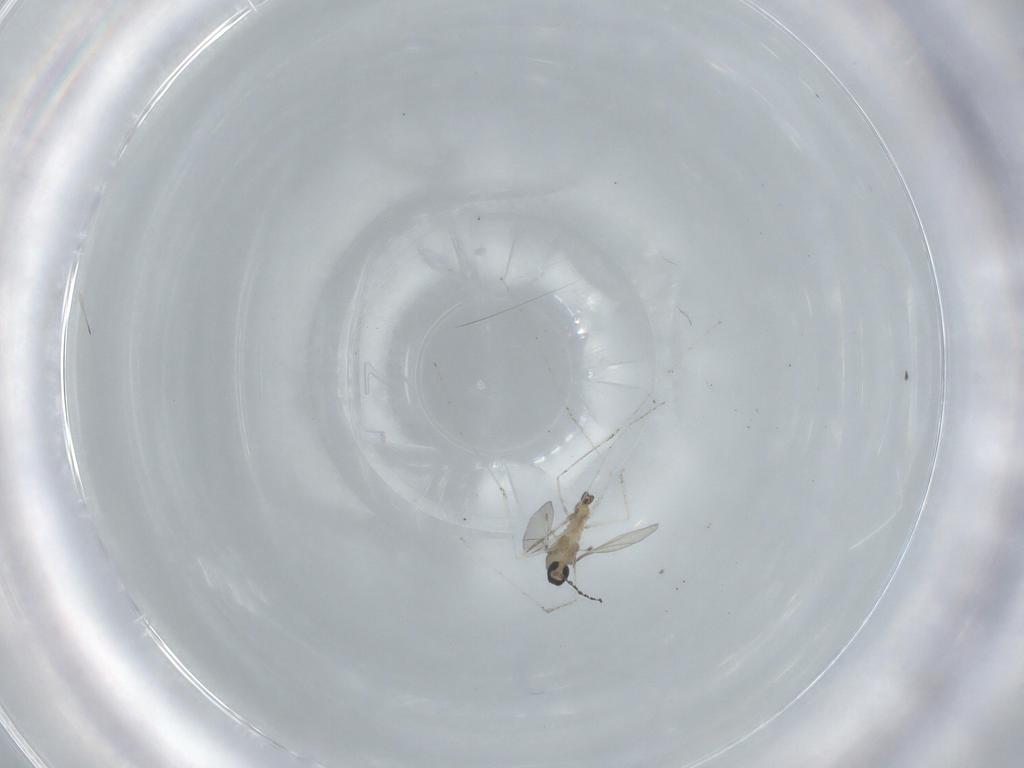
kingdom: Animalia
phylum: Arthropoda
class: Insecta
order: Diptera
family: Cecidomyiidae
